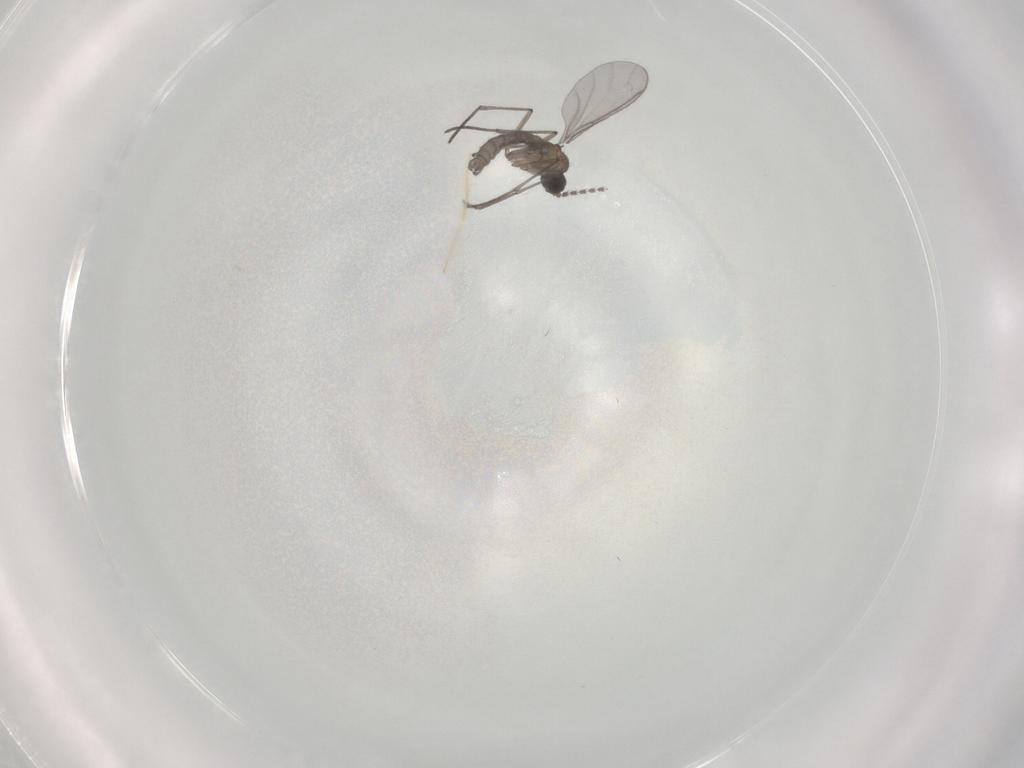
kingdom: Animalia
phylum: Arthropoda
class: Insecta
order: Diptera
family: Chironomidae
